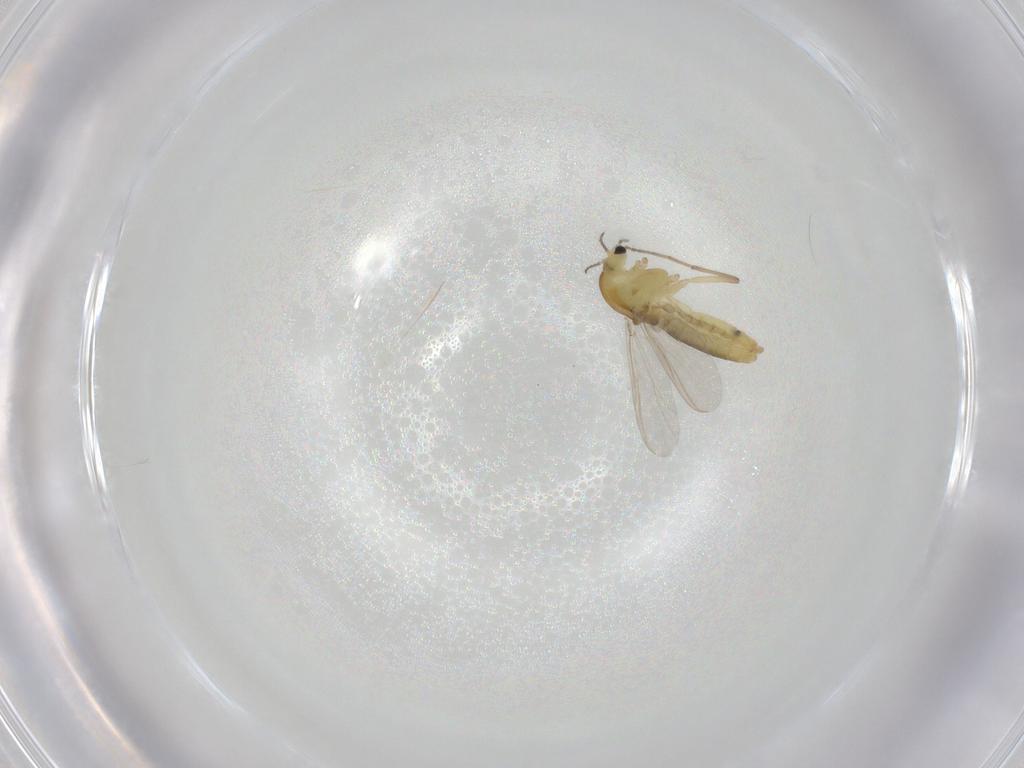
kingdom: Animalia
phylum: Arthropoda
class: Insecta
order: Diptera
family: Chironomidae
